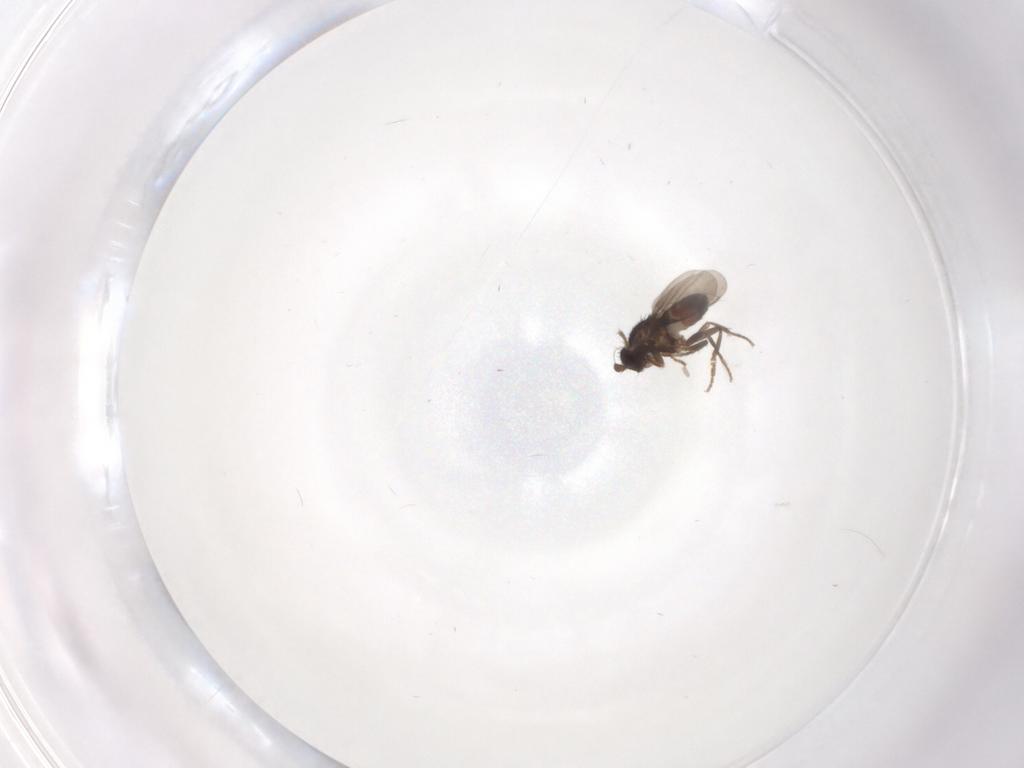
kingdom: Animalia
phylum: Arthropoda
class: Insecta
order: Diptera
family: Sphaeroceridae
